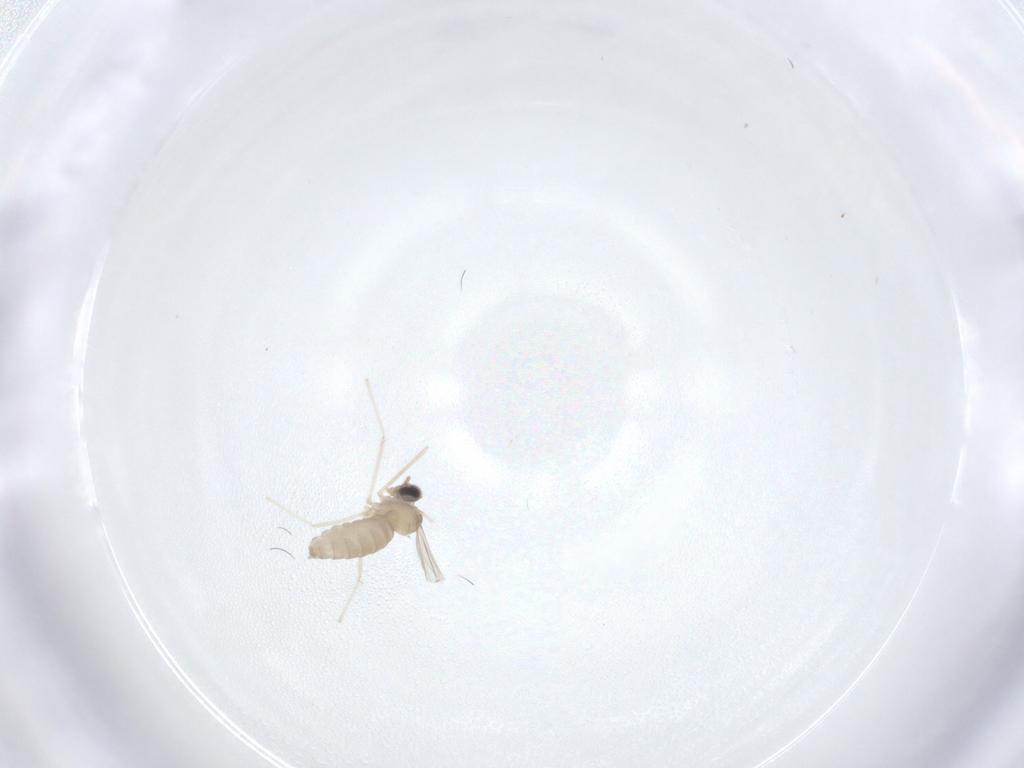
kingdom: Animalia
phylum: Arthropoda
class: Insecta
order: Diptera
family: Cecidomyiidae
